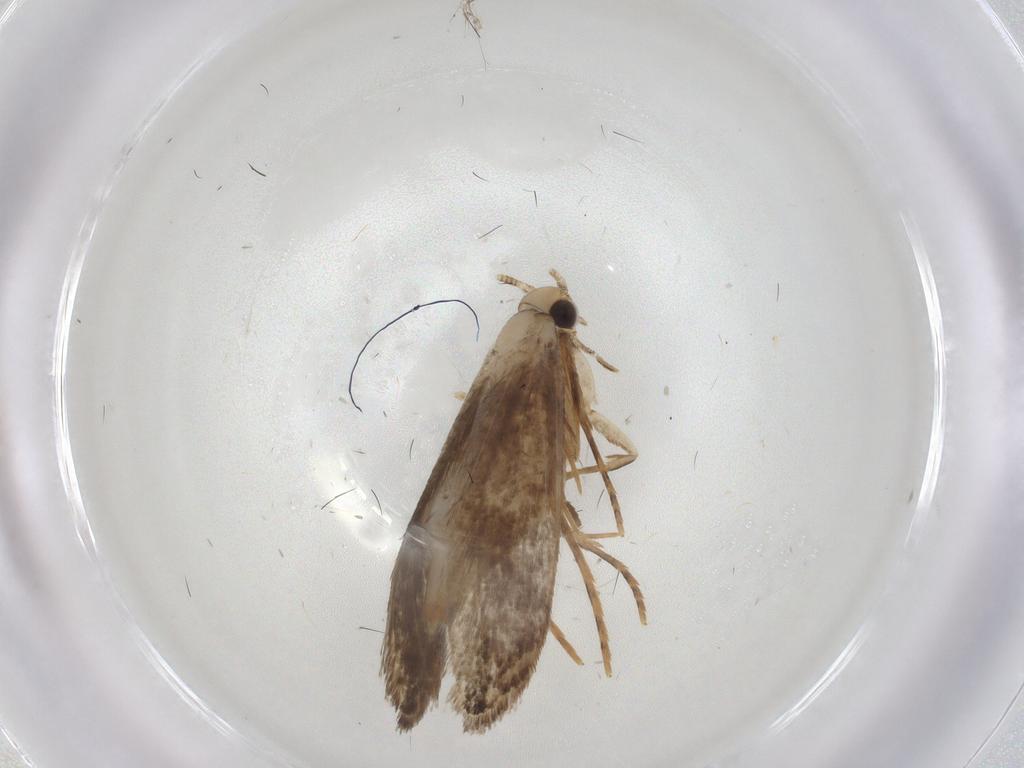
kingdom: Animalia
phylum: Arthropoda
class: Insecta
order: Lepidoptera
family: Tineidae
